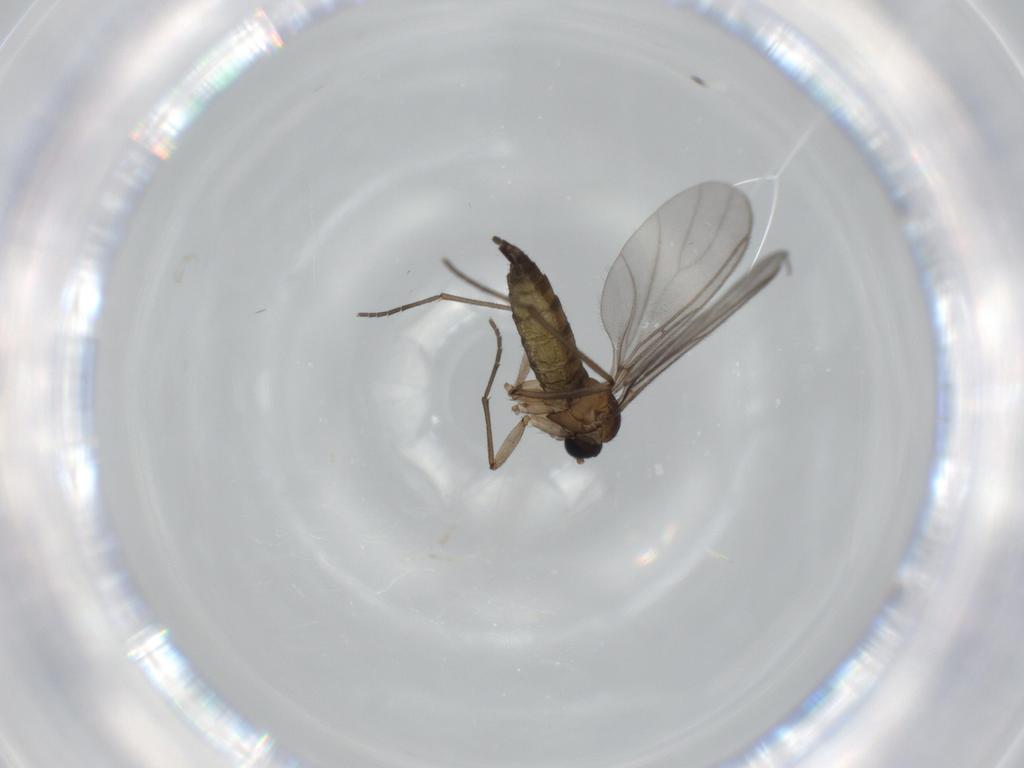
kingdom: Animalia
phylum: Arthropoda
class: Insecta
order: Diptera
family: Sciaridae
